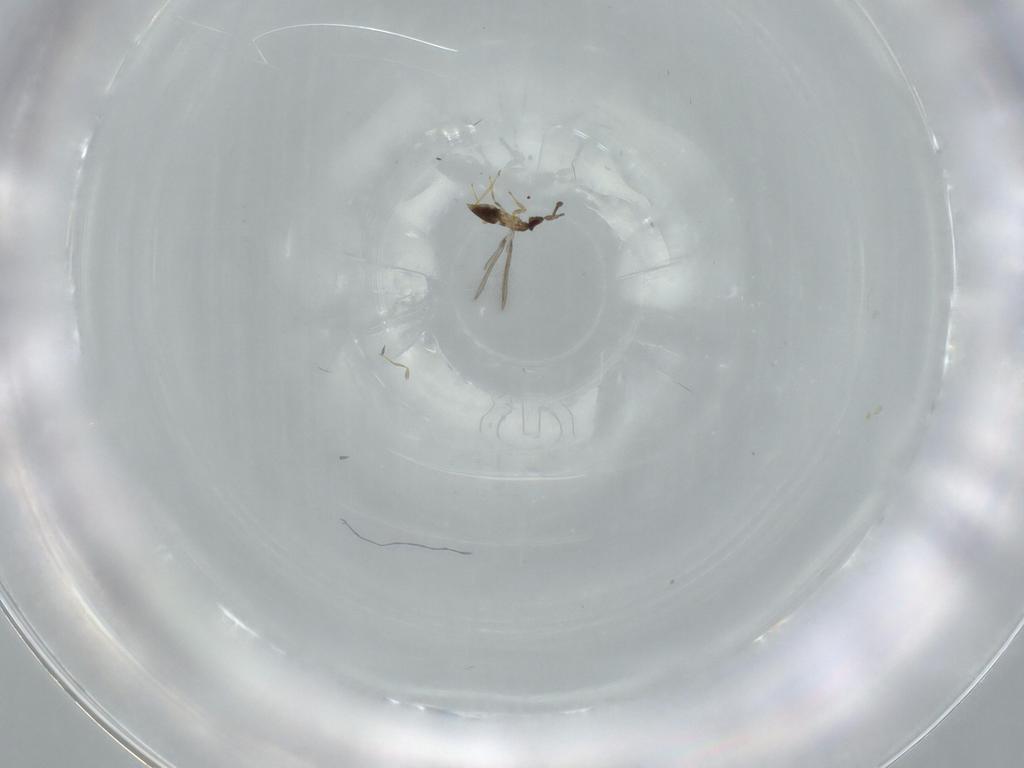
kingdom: Animalia
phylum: Arthropoda
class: Insecta
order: Hymenoptera
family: Mymaridae
